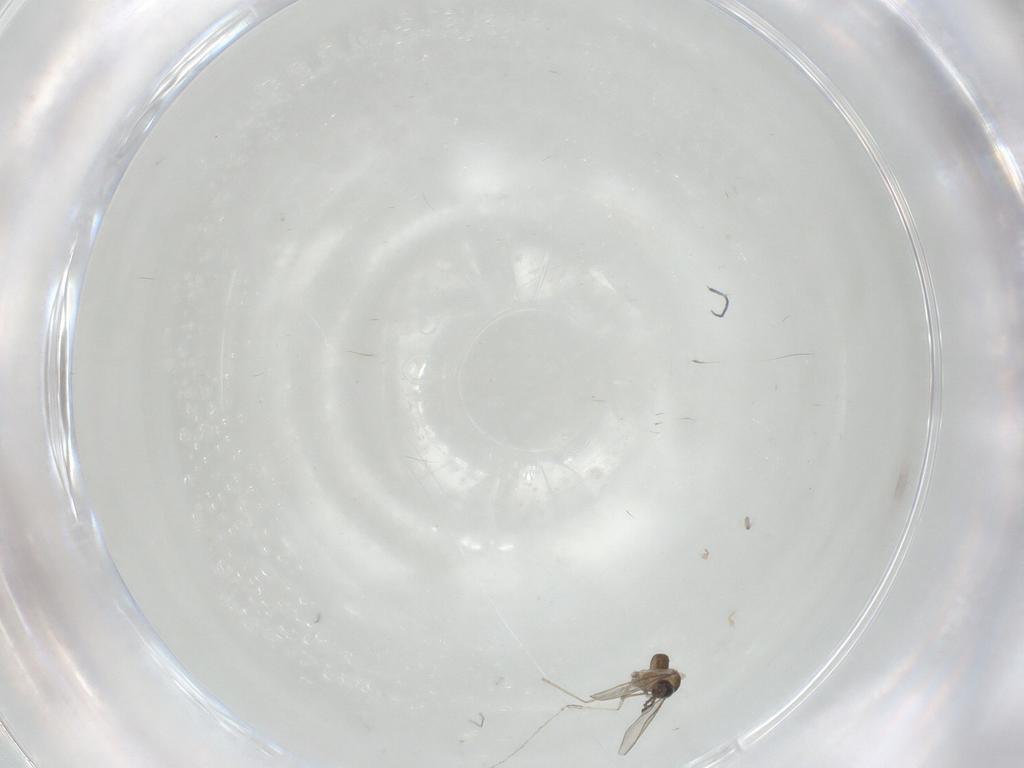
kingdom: Animalia
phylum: Arthropoda
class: Insecta
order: Diptera
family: Cecidomyiidae
